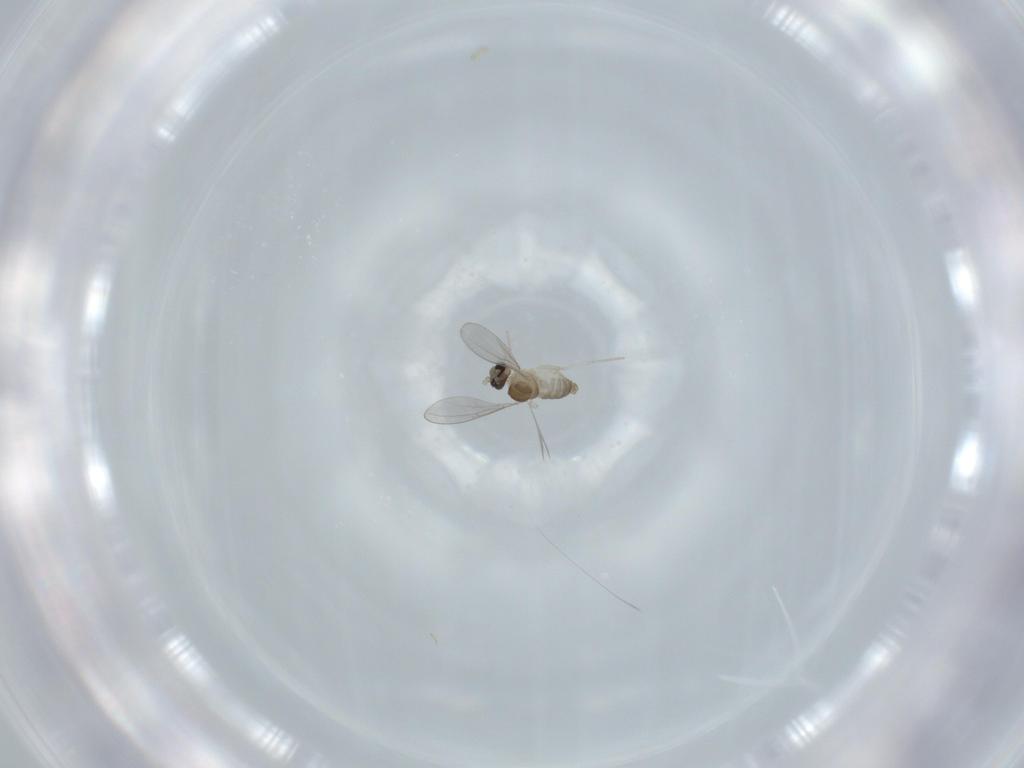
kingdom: Animalia
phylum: Arthropoda
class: Insecta
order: Diptera
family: Cecidomyiidae
